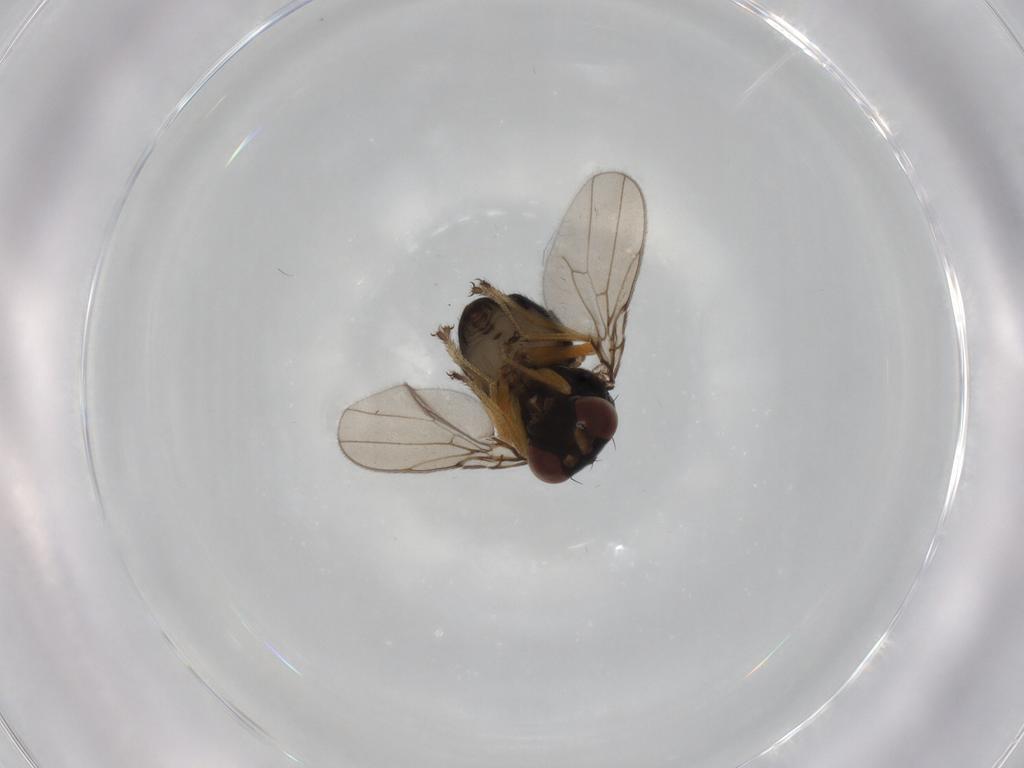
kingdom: Animalia
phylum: Arthropoda
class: Insecta
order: Diptera
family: Ephydridae
